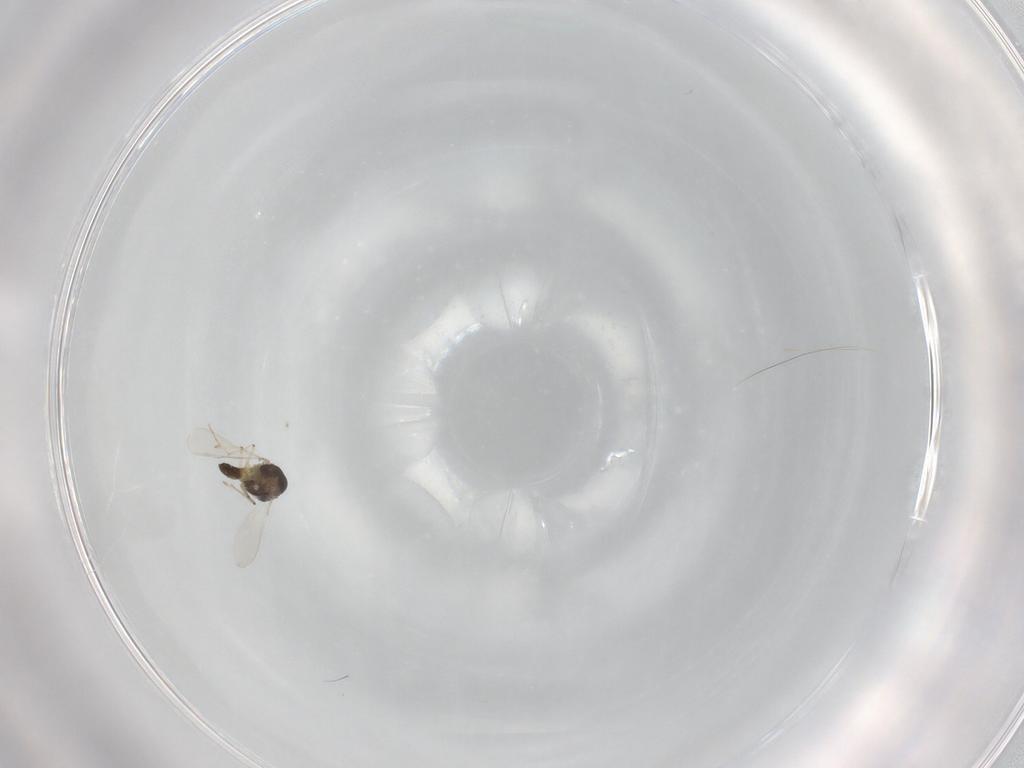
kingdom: Animalia
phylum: Arthropoda
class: Insecta
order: Diptera
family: Chironomidae
